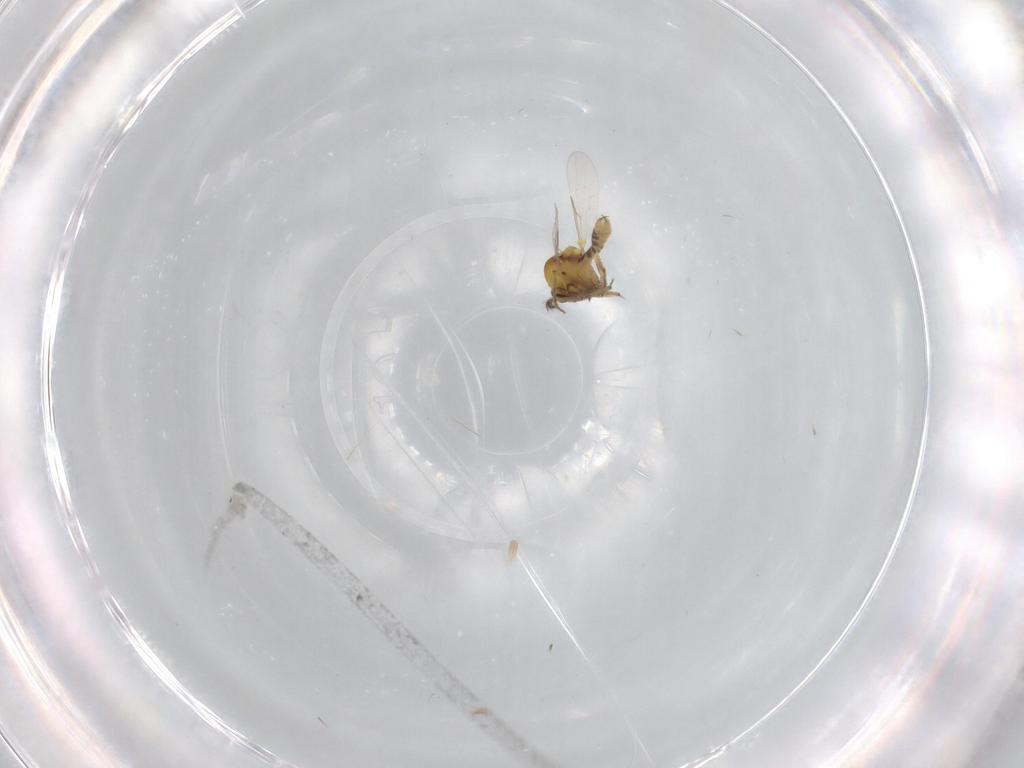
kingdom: Animalia
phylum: Arthropoda
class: Insecta
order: Diptera
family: Ceratopogonidae
